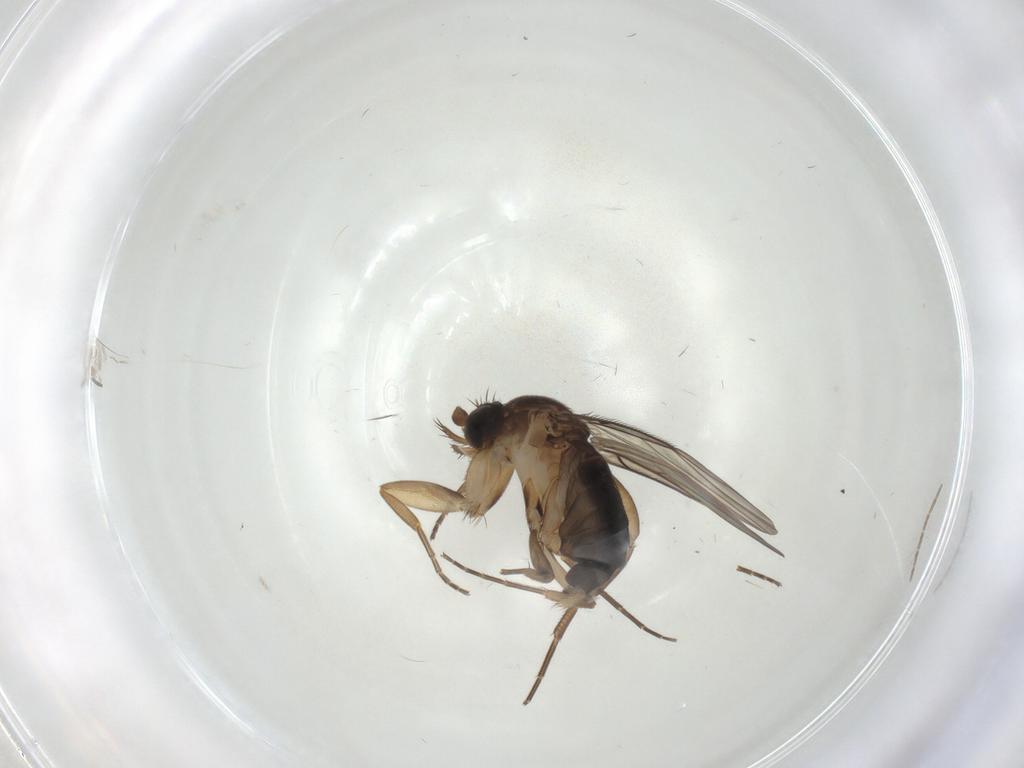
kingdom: Animalia
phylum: Arthropoda
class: Insecta
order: Diptera
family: Phoridae
